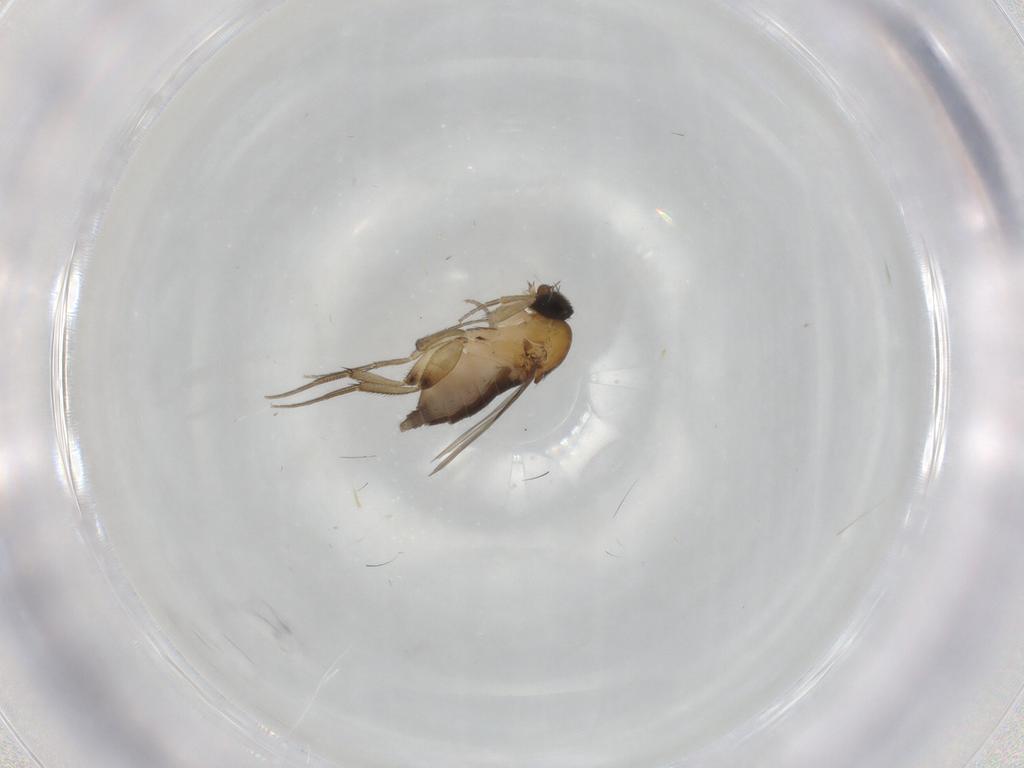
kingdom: Animalia
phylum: Arthropoda
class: Insecta
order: Diptera
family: Phoridae
